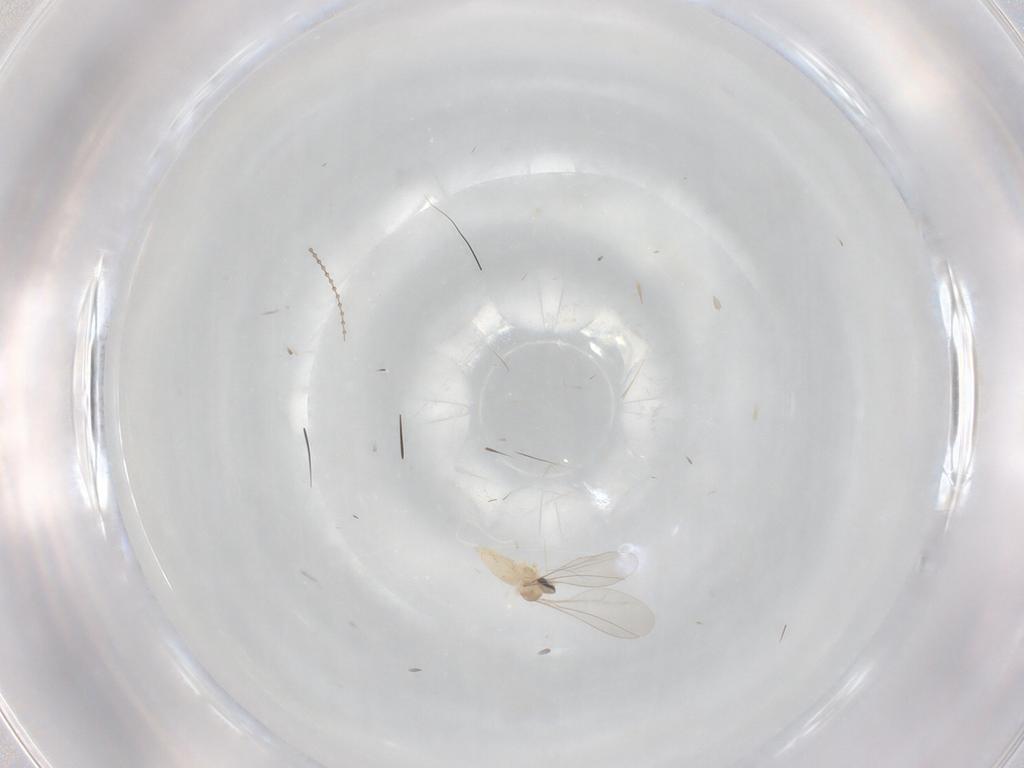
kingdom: Animalia
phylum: Arthropoda
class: Insecta
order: Diptera
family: Cecidomyiidae
